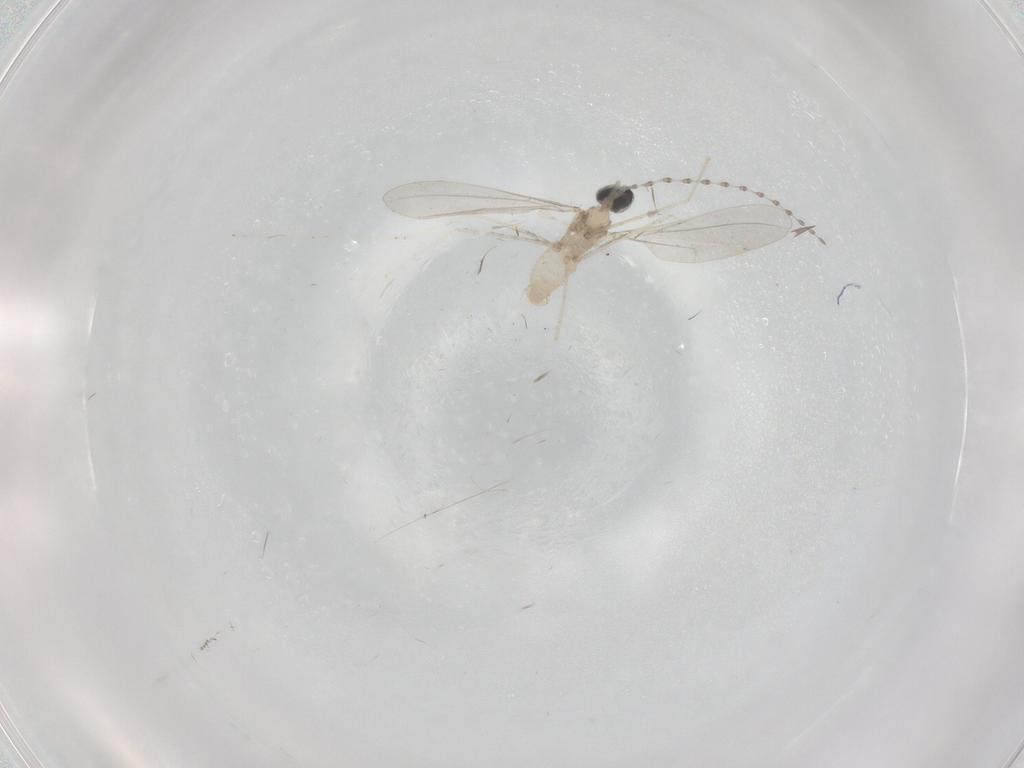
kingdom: Animalia
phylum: Arthropoda
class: Insecta
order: Diptera
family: Cecidomyiidae
